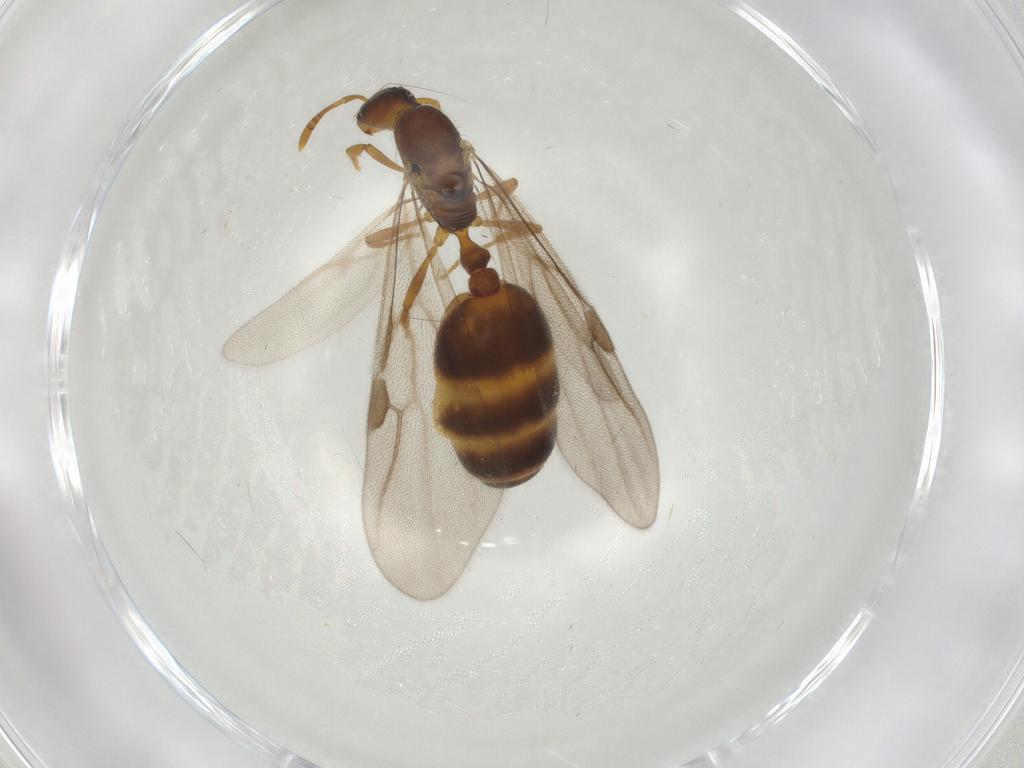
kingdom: Animalia
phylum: Arthropoda
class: Insecta
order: Hymenoptera
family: Formicidae
